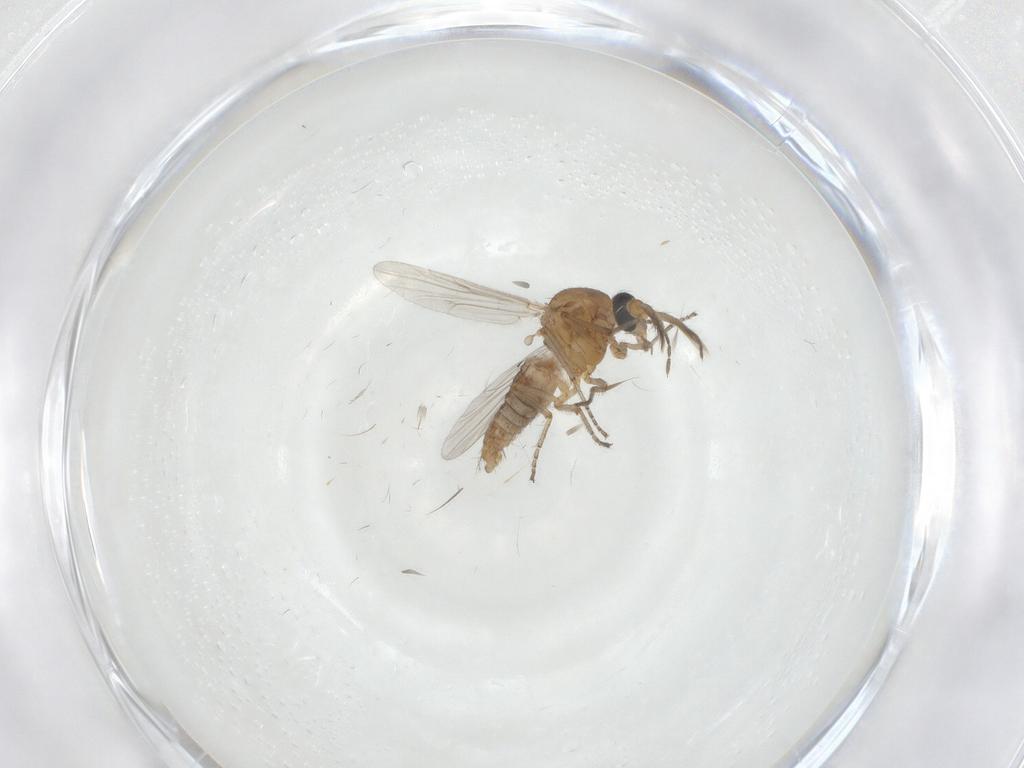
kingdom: Animalia
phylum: Arthropoda
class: Insecta
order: Diptera
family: Ceratopogonidae
